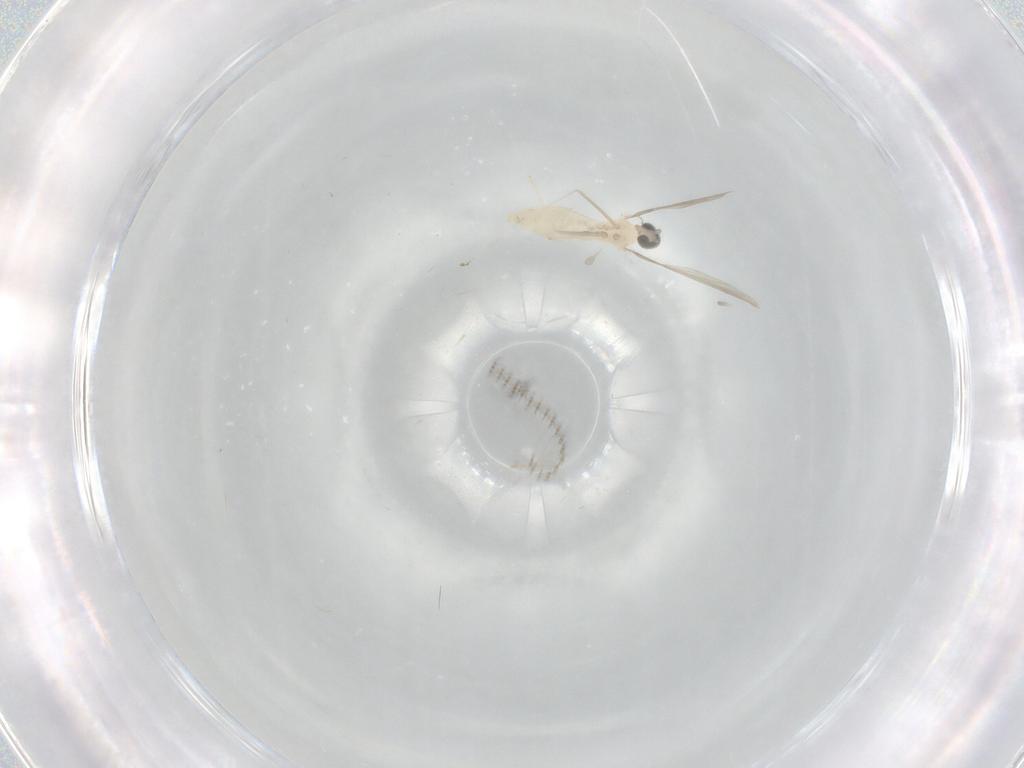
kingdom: Animalia
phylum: Arthropoda
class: Insecta
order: Diptera
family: Cecidomyiidae
